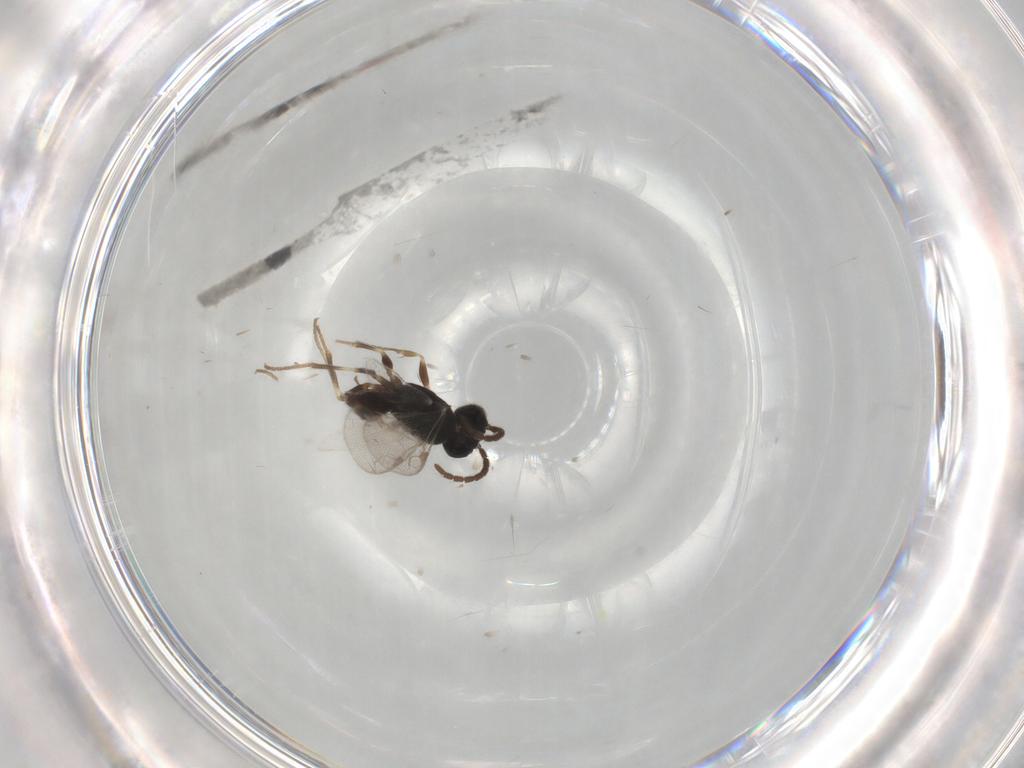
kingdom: Animalia
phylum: Arthropoda
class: Insecta
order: Hymenoptera
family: Dryinidae
